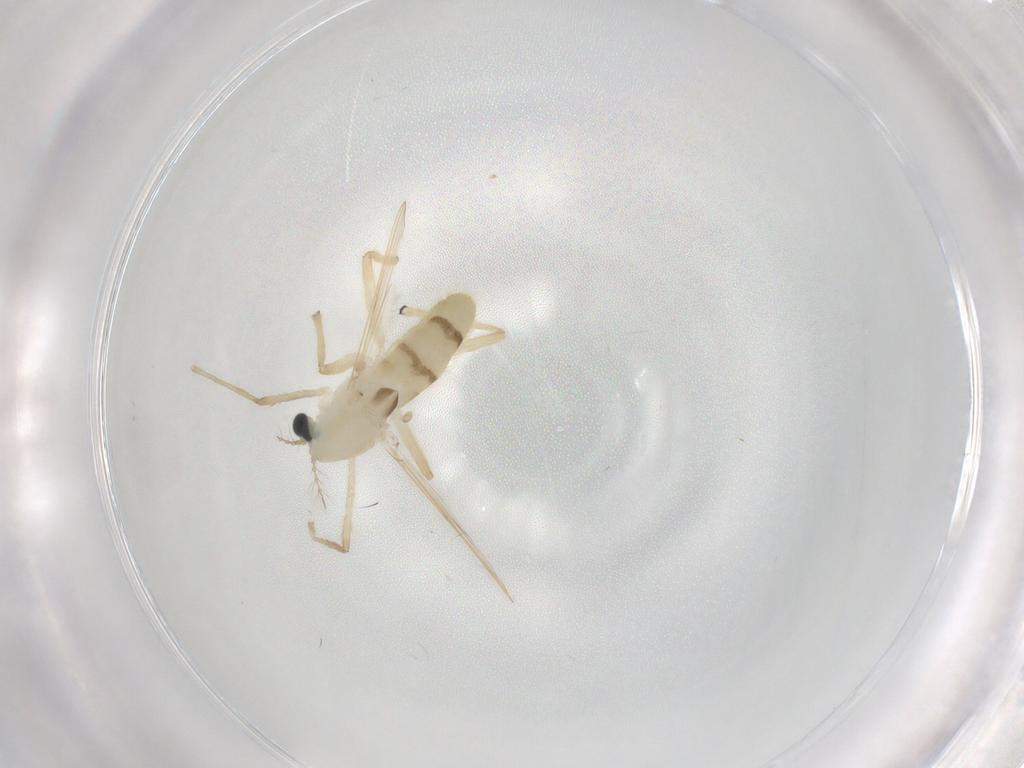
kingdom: Animalia
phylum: Arthropoda
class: Insecta
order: Diptera
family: Chironomidae
